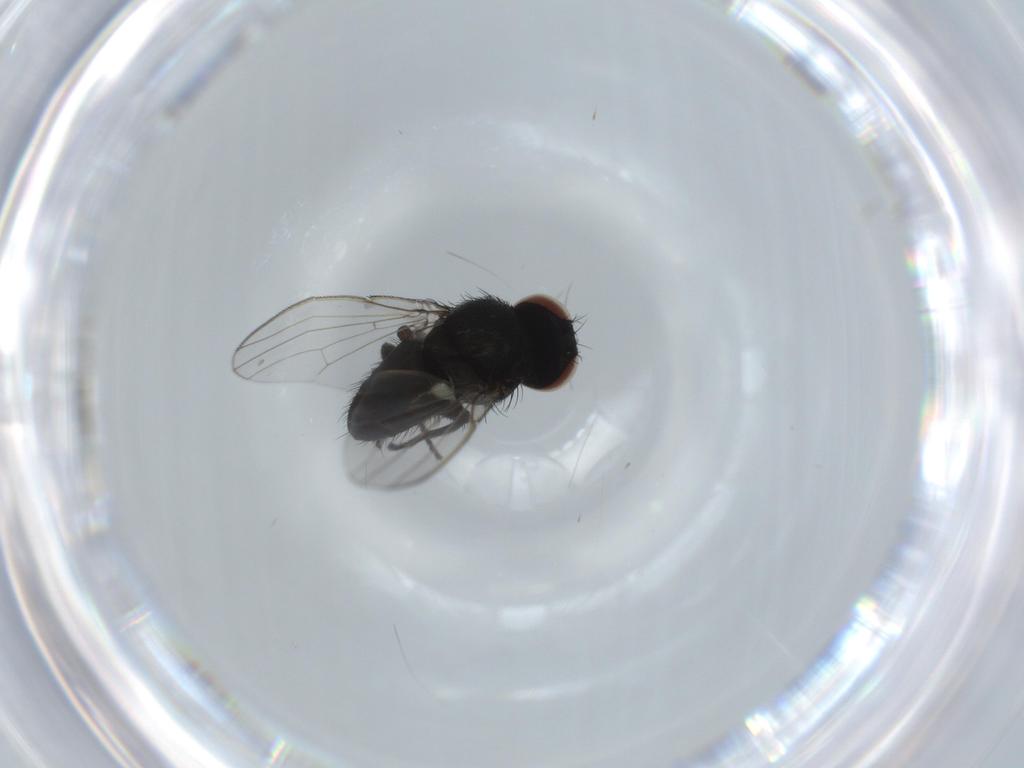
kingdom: Animalia
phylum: Arthropoda
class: Insecta
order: Diptera
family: Milichiidae
